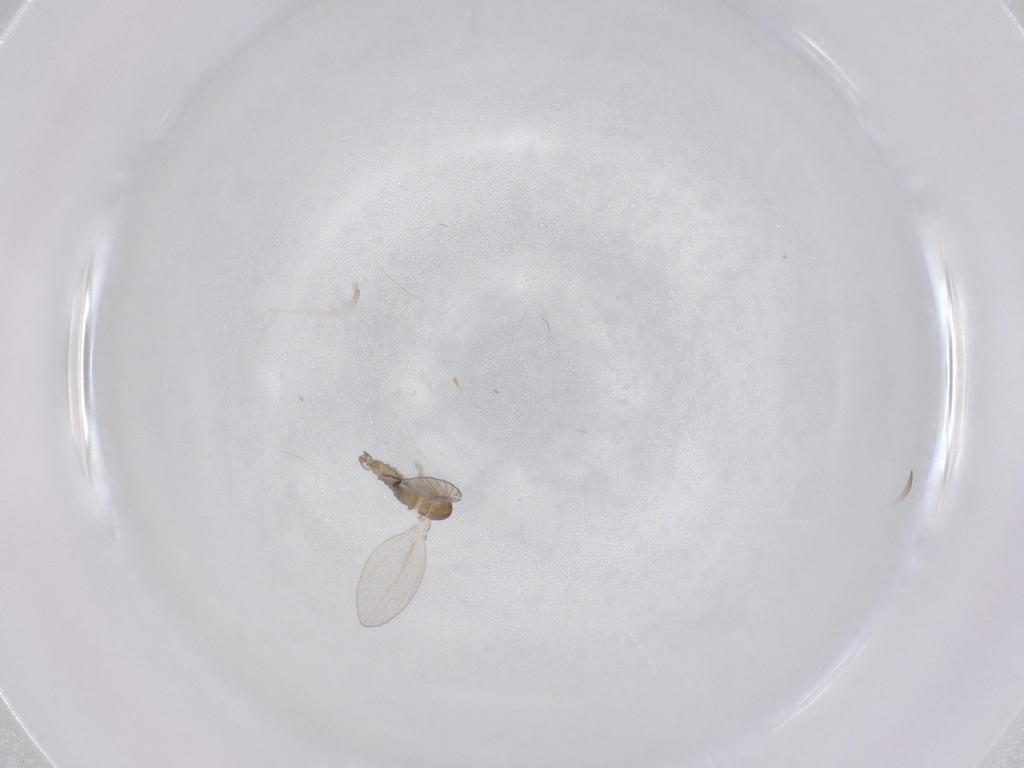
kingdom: Animalia
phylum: Arthropoda
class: Insecta
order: Diptera
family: Psychodidae
